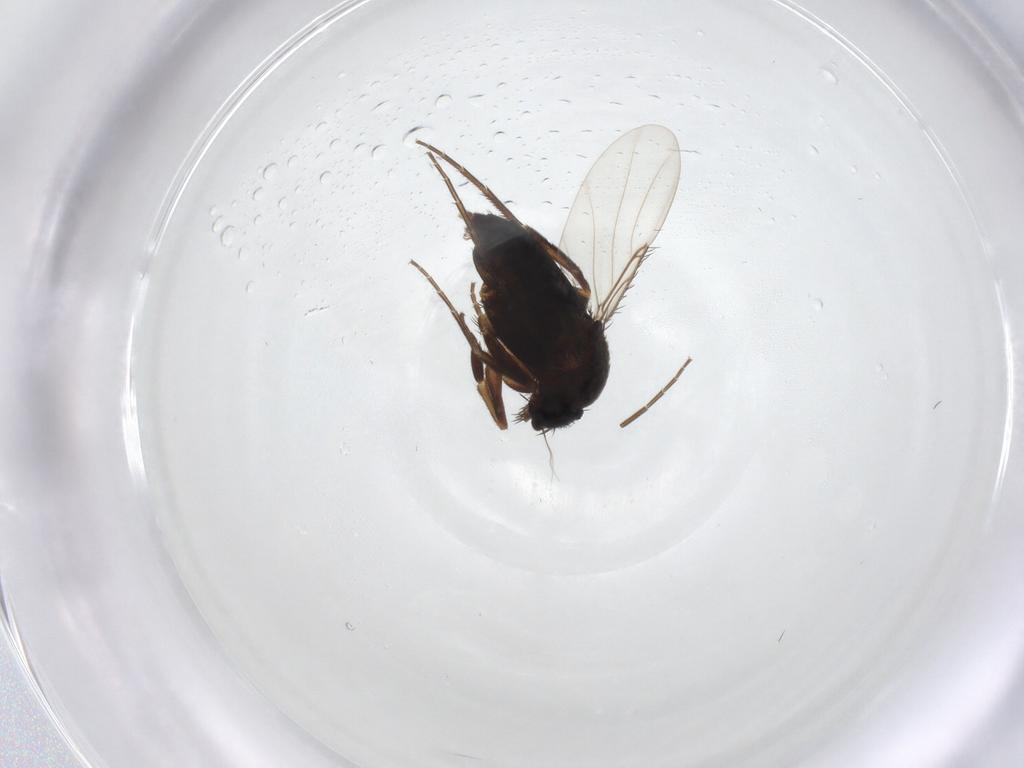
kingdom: Animalia
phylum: Arthropoda
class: Insecta
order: Diptera
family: Phoridae
